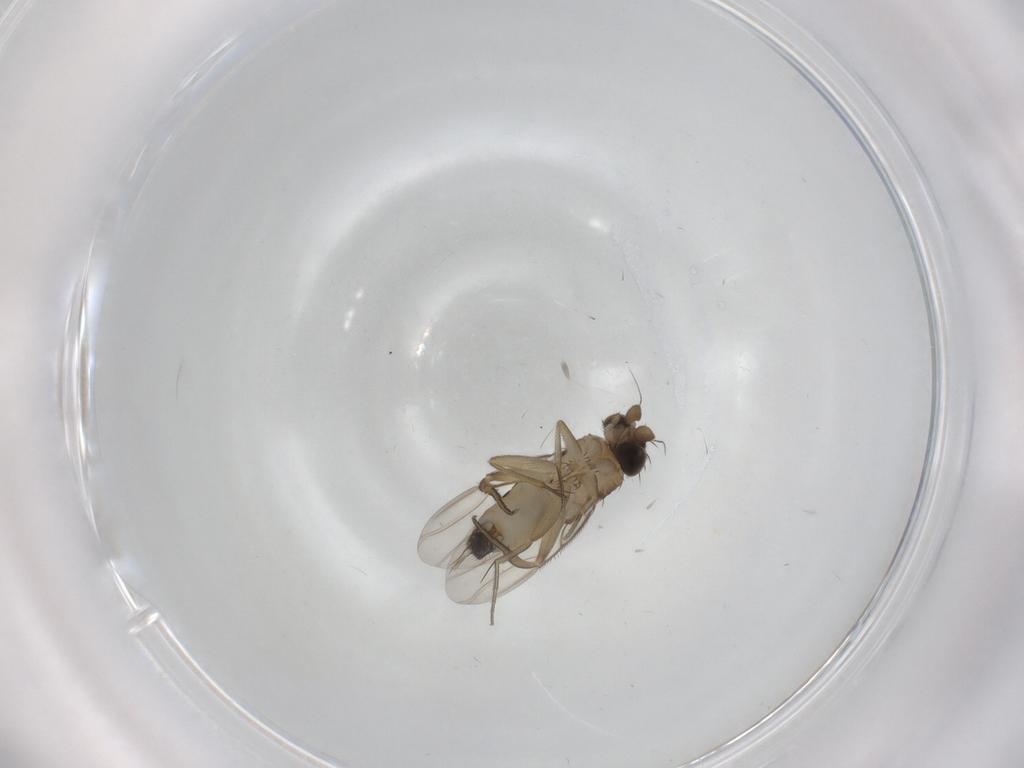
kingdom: Animalia
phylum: Arthropoda
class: Insecta
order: Diptera
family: Phoridae
